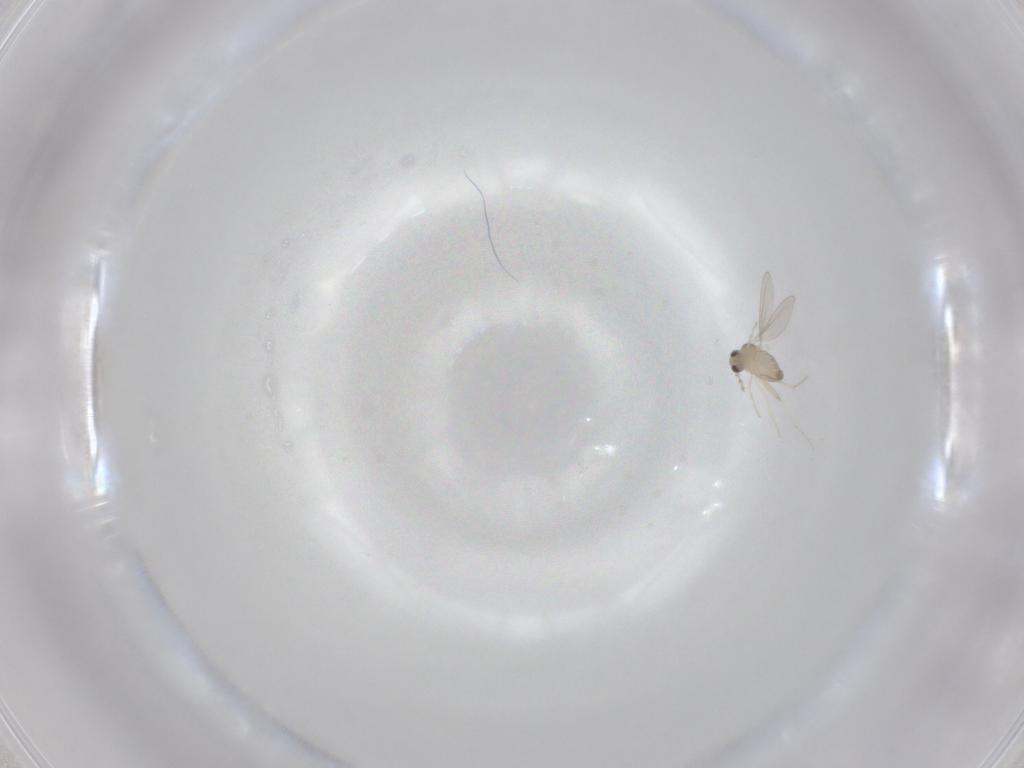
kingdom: Animalia
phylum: Arthropoda
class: Insecta
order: Diptera
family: Cecidomyiidae
